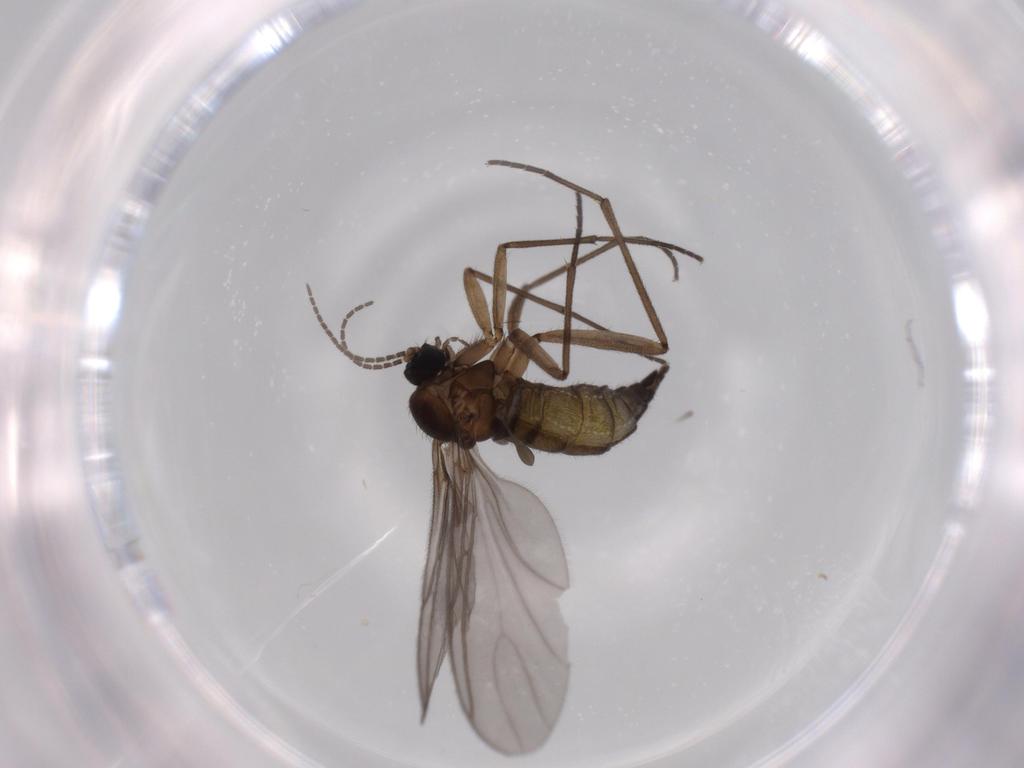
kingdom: Animalia
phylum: Arthropoda
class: Insecta
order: Diptera
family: Sciaridae
